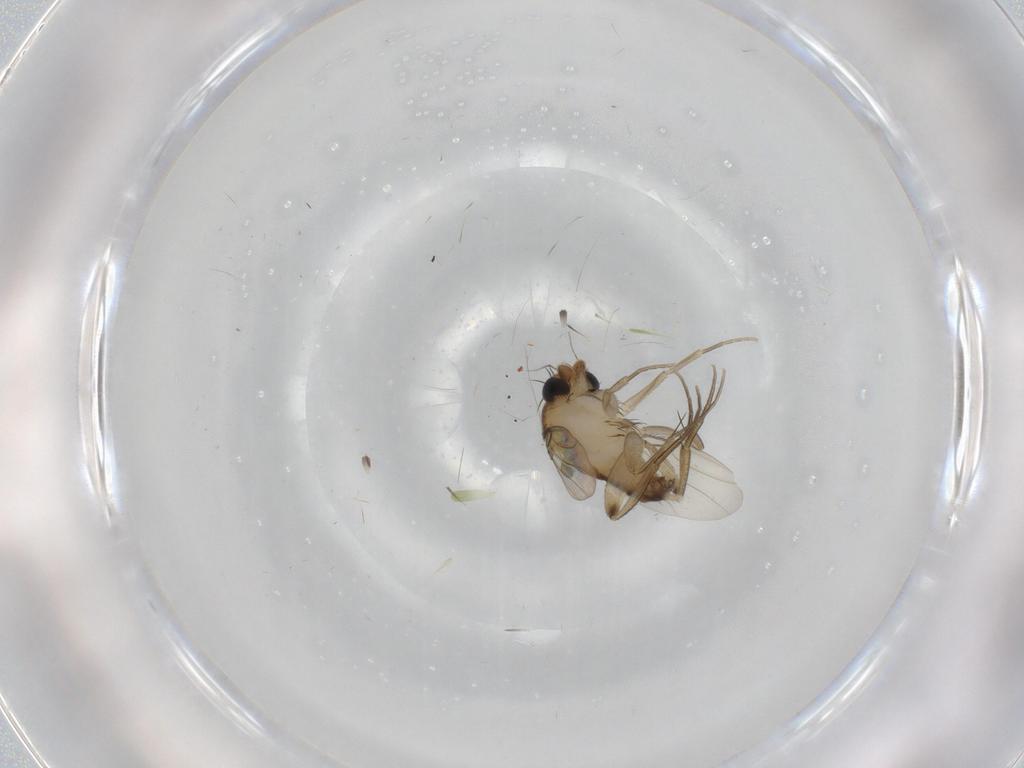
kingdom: Animalia
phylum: Arthropoda
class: Insecta
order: Diptera
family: Phoridae
